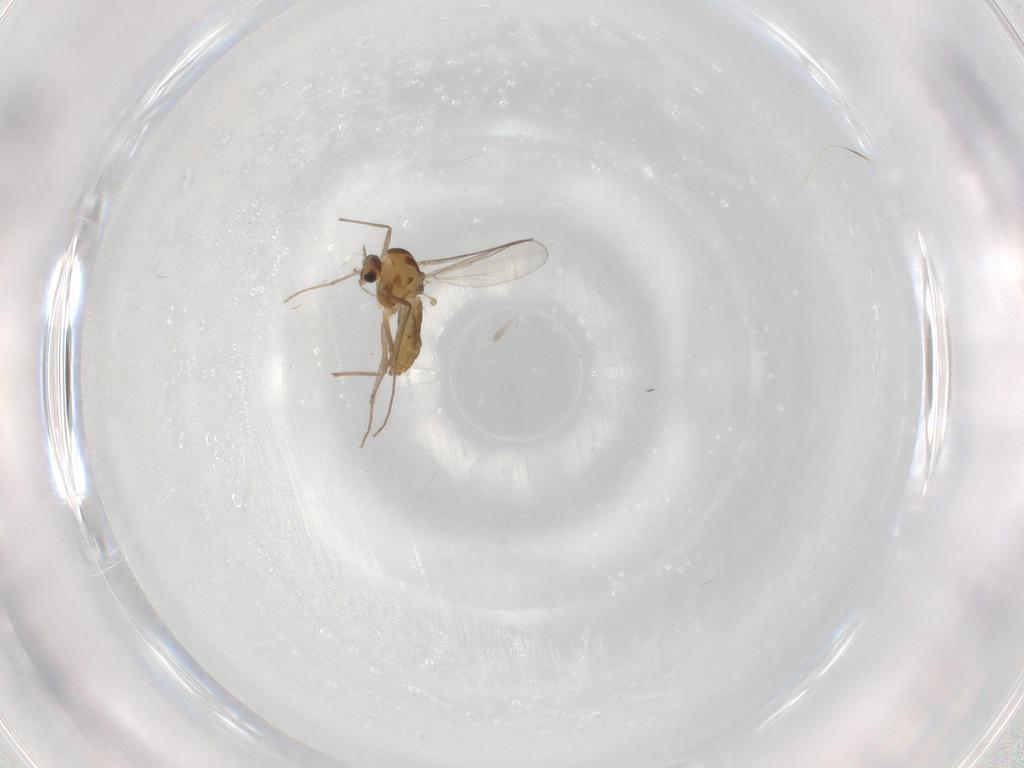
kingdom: Animalia
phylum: Arthropoda
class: Insecta
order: Diptera
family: Chironomidae
